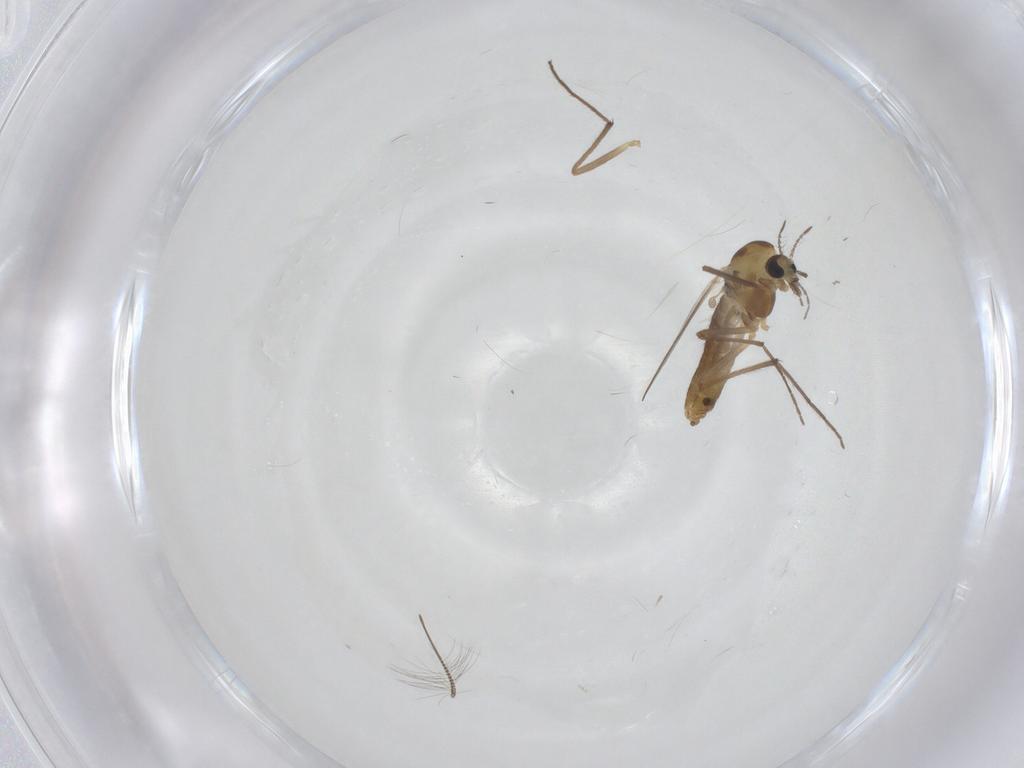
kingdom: Animalia
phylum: Arthropoda
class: Insecta
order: Diptera
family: Chironomidae
